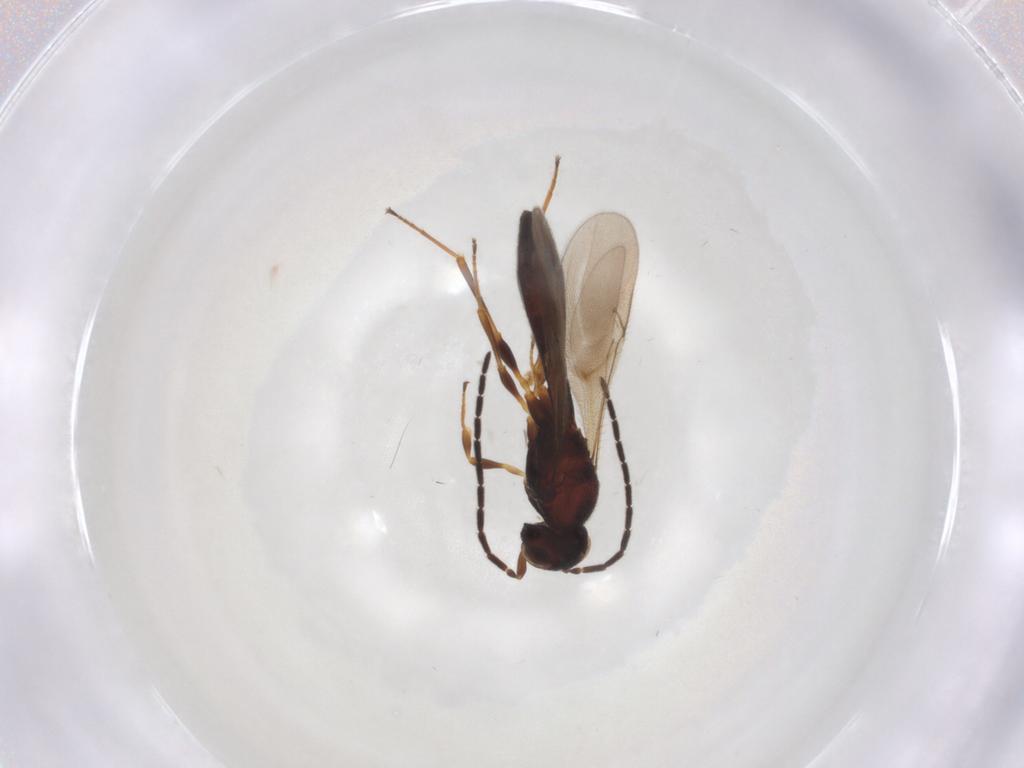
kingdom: Animalia
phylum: Arthropoda
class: Insecta
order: Hymenoptera
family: Scelionidae
